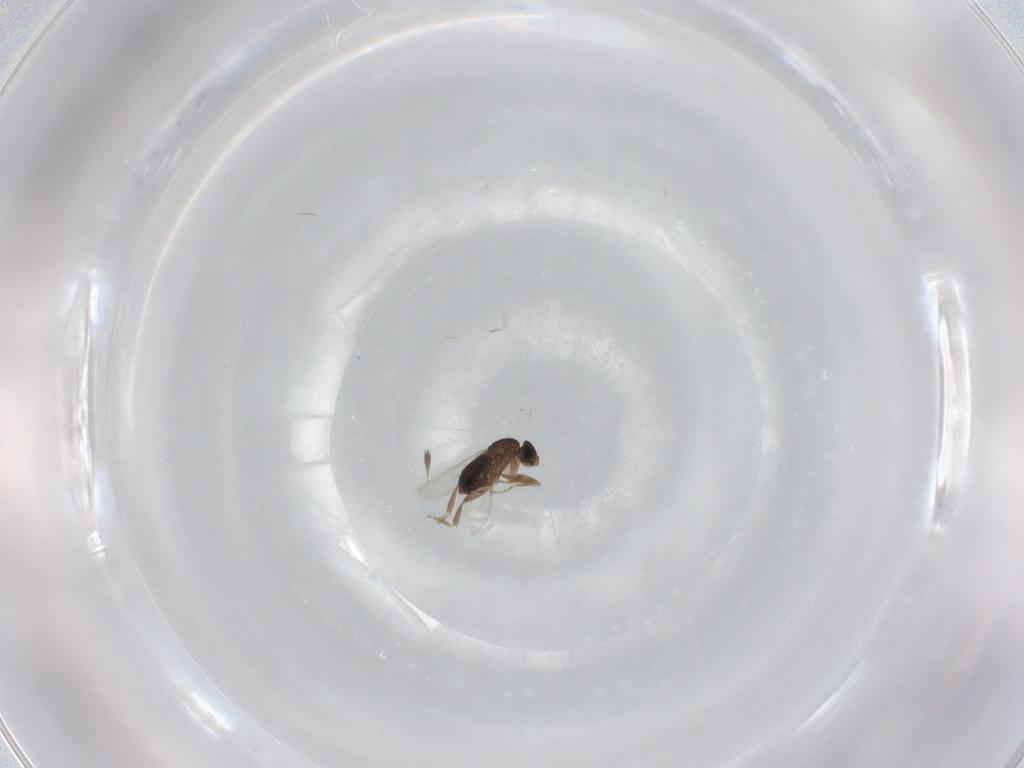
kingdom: Animalia
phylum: Arthropoda
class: Insecta
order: Diptera
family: Phoridae
